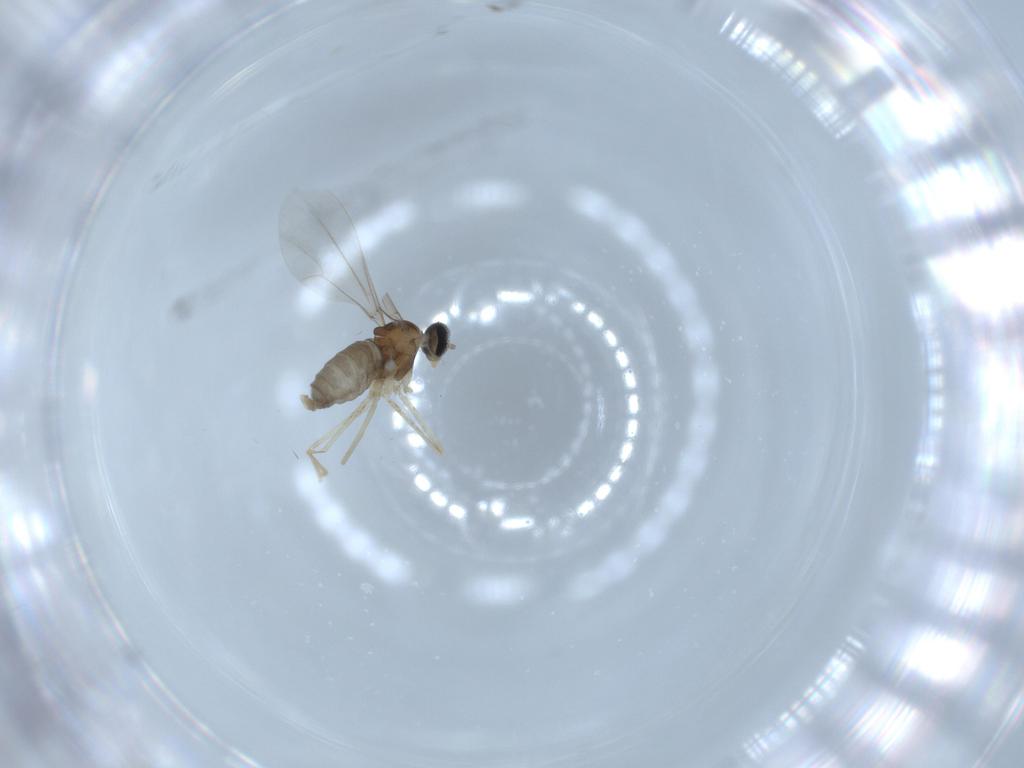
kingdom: Animalia
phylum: Arthropoda
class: Insecta
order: Diptera
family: Cecidomyiidae
